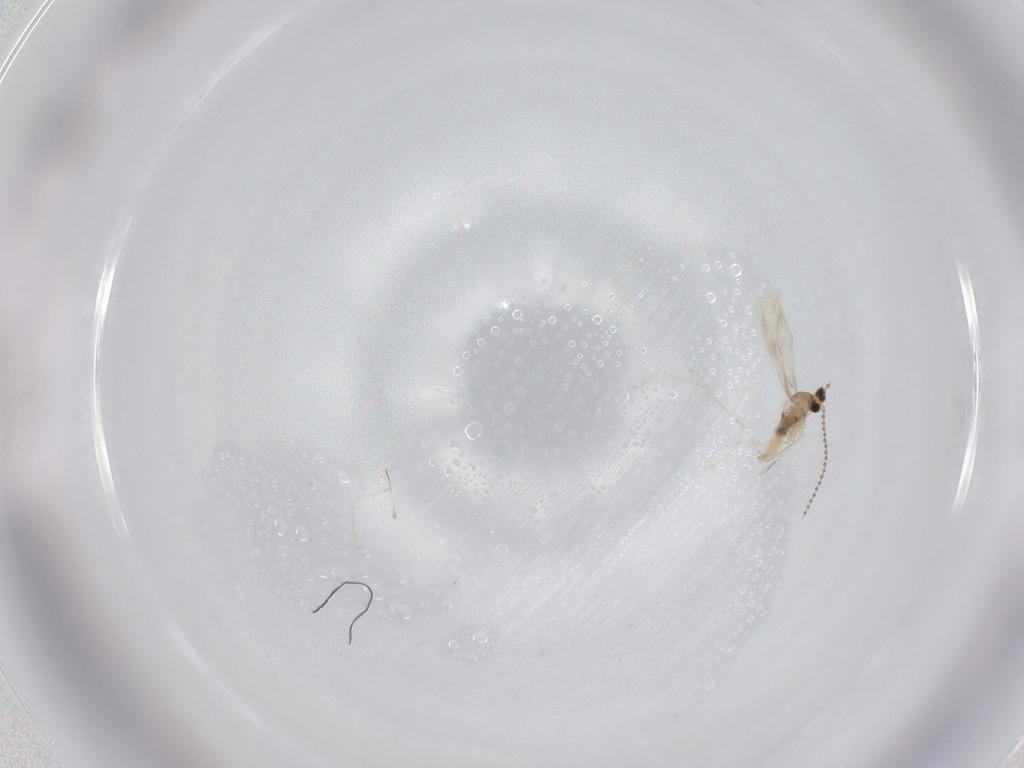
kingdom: Animalia
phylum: Arthropoda
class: Insecta
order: Diptera
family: Cecidomyiidae
